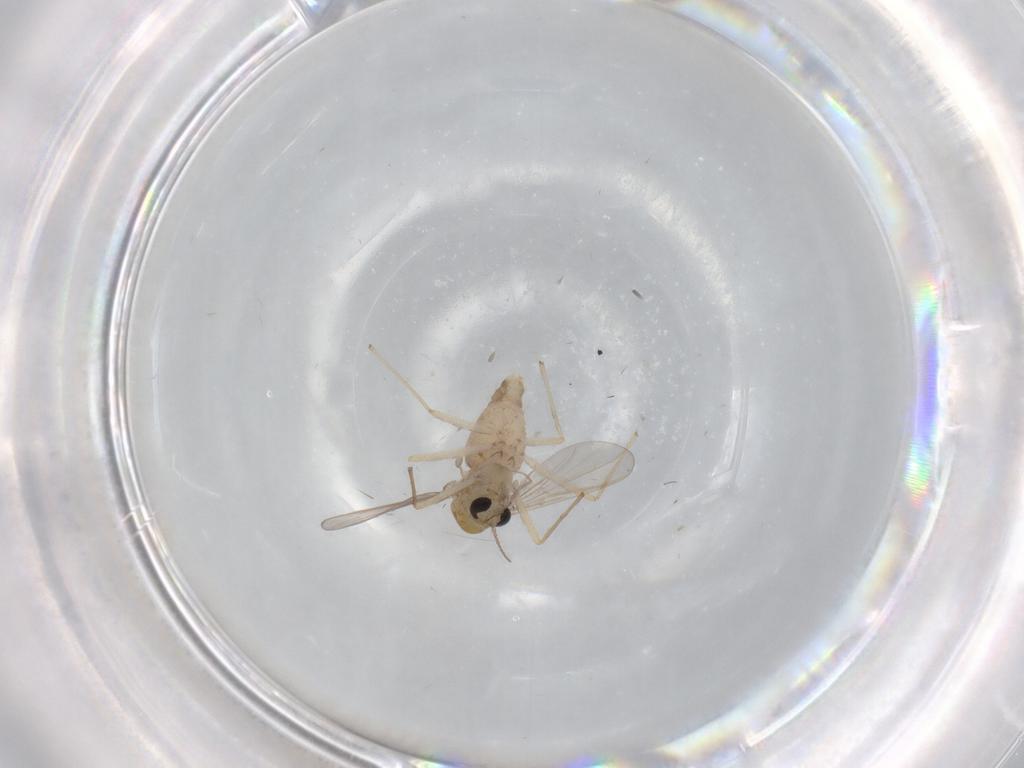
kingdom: Animalia
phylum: Arthropoda
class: Insecta
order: Diptera
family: Chironomidae
